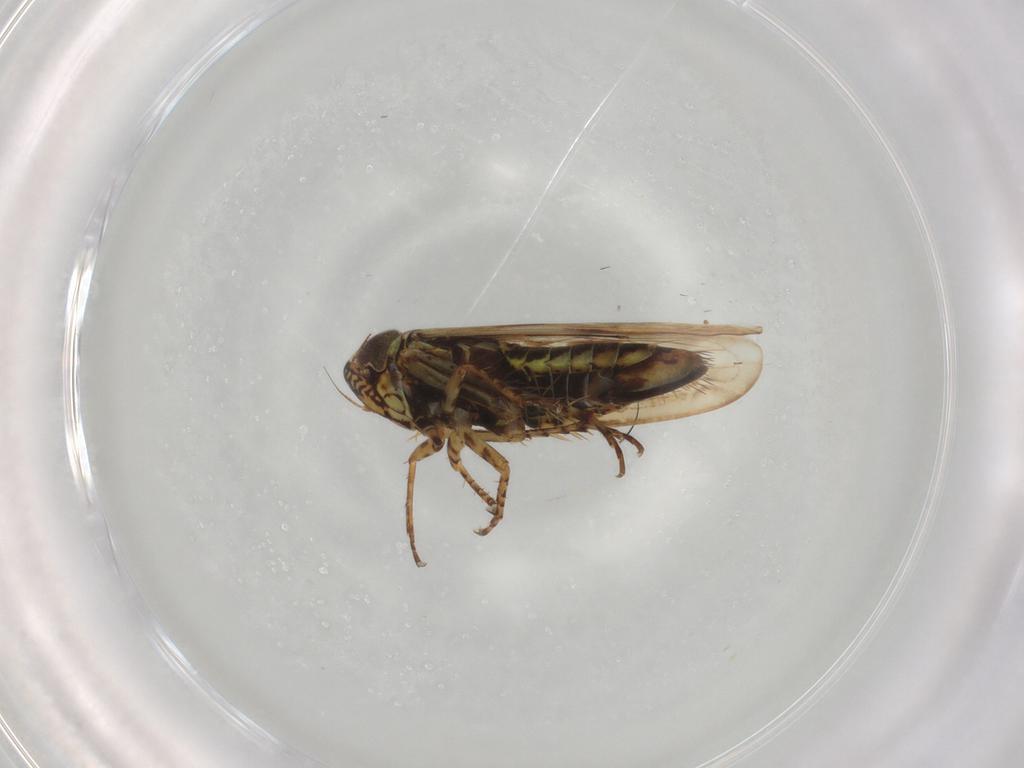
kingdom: Animalia
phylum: Arthropoda
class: Insecta
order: Hemiptera
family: Cicadellidae
